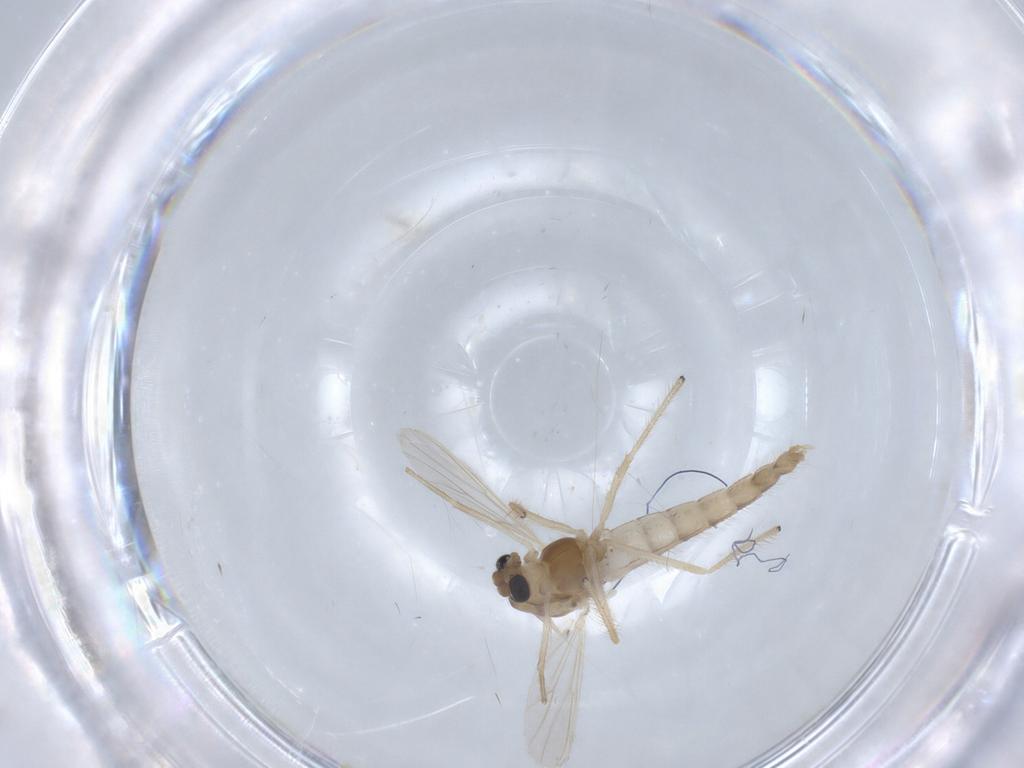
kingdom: Animalia
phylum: Arthropoda
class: Insecta
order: Diptera
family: Chironomidae
